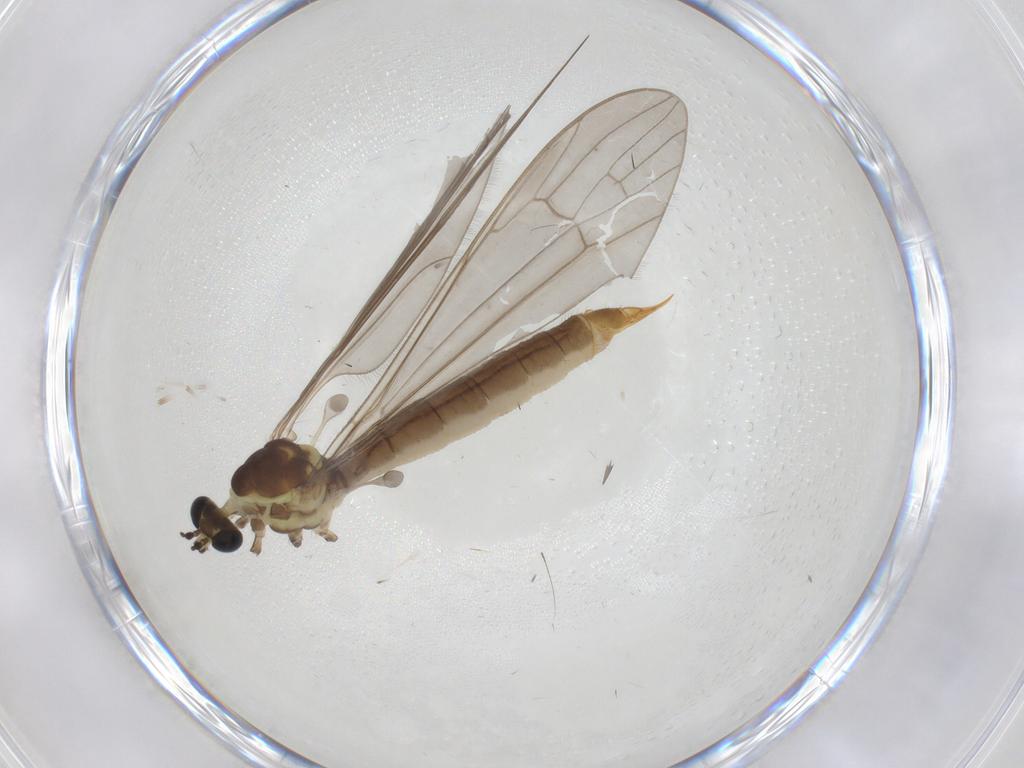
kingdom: Animalia
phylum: Arthropoda
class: Insecta
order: Diptera
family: Limoniidae
